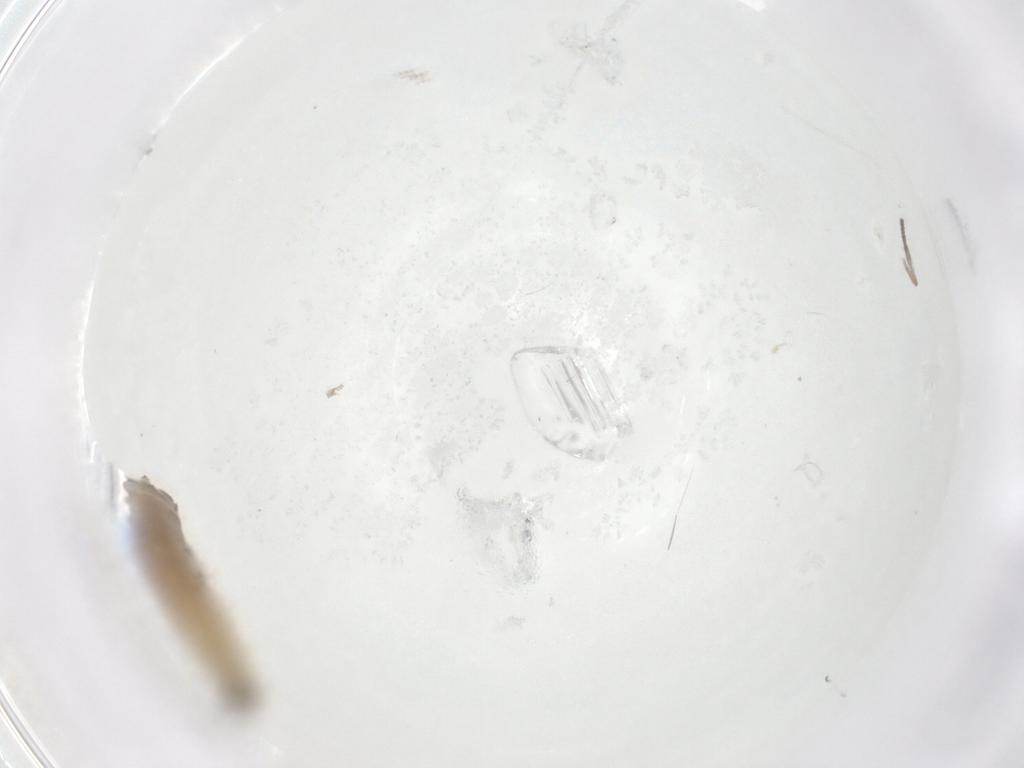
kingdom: Animalia
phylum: Arthropoda
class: Insecta
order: Diptera
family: Drosophilidae
